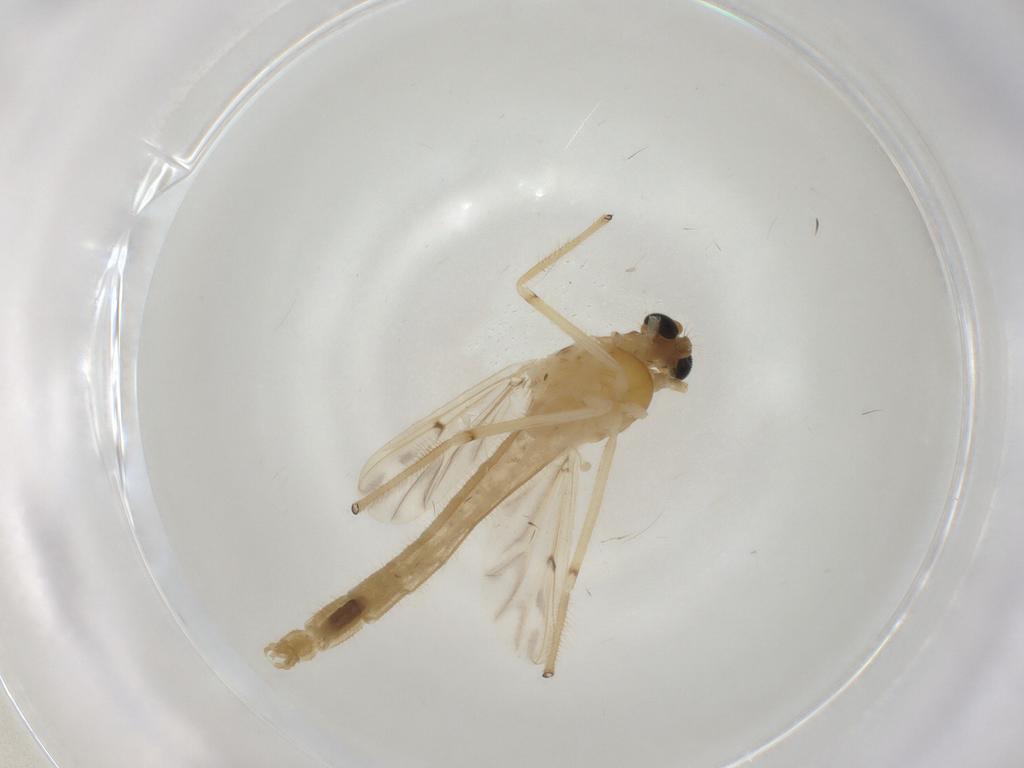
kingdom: Animalia
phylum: Arthropoda
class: Insecta
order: Diptera
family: Chironomidae
